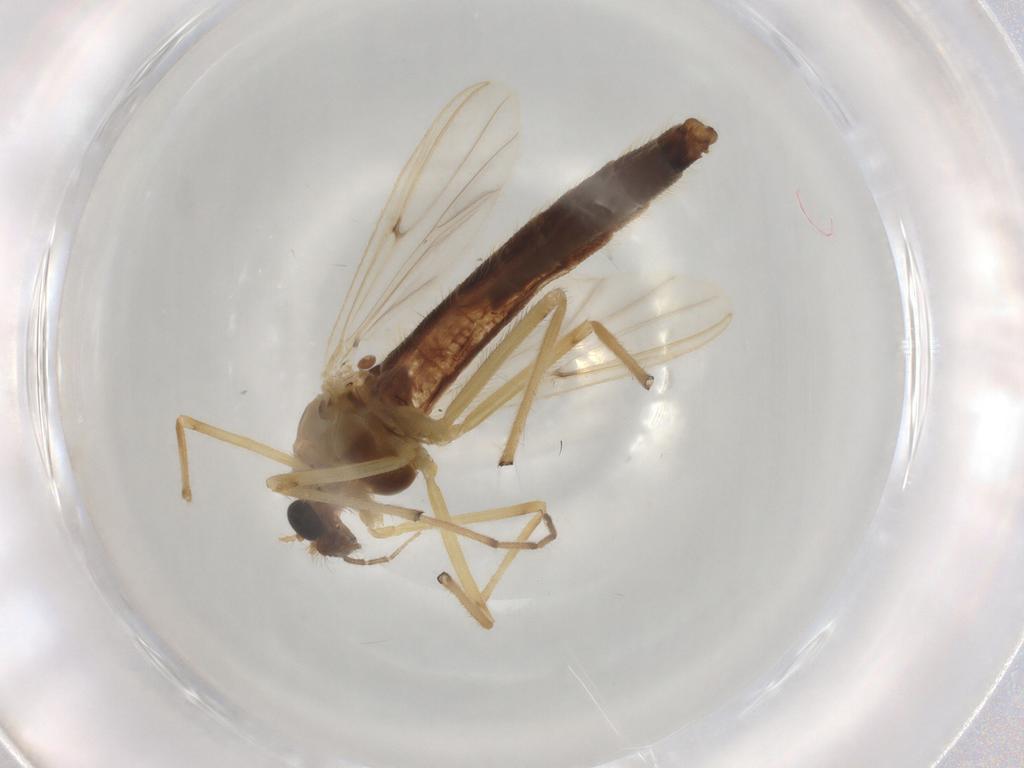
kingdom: Animalia
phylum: Arthropoda
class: Insecta
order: Diptera
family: Chironomidae
